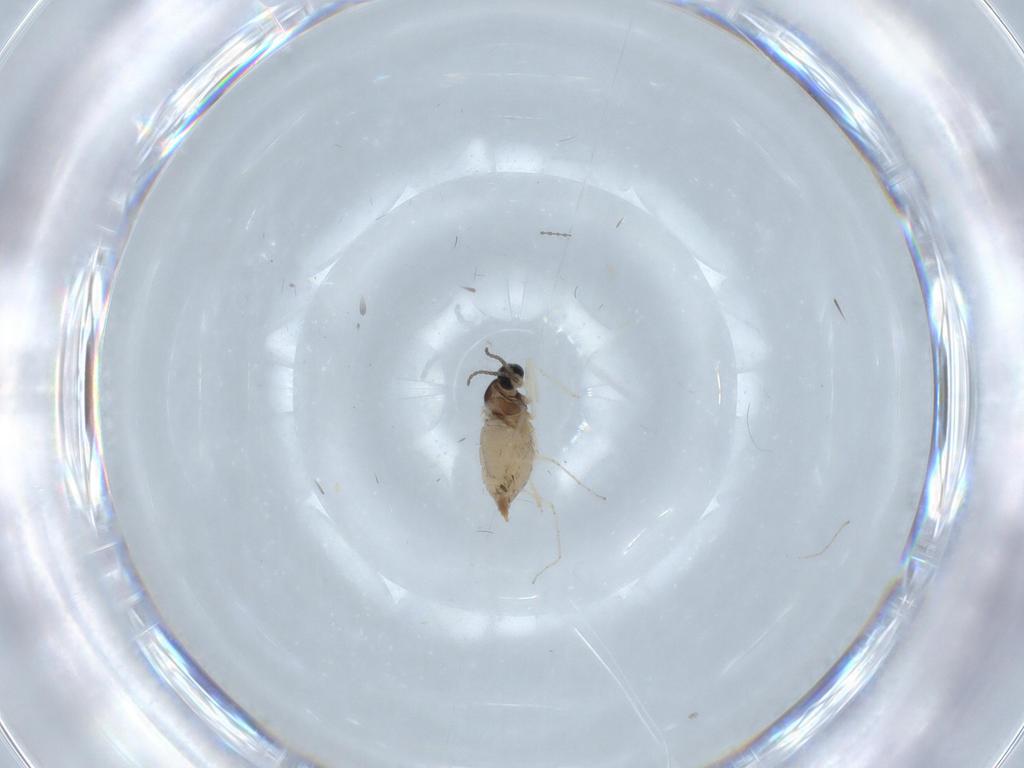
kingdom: Animalia
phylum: Arthropoda
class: Insecta
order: Diptera
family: Cecidomyiidae
